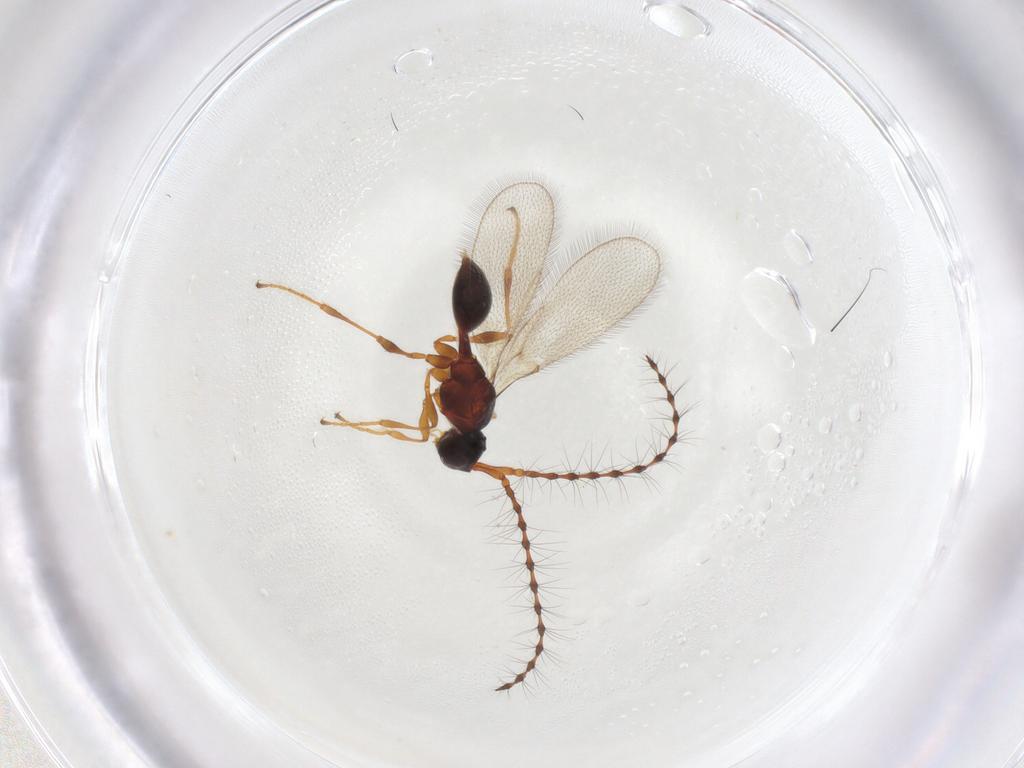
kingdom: Animalia
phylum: Arthropoda
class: Insecta
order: Hymenoptera
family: Diapriidae
